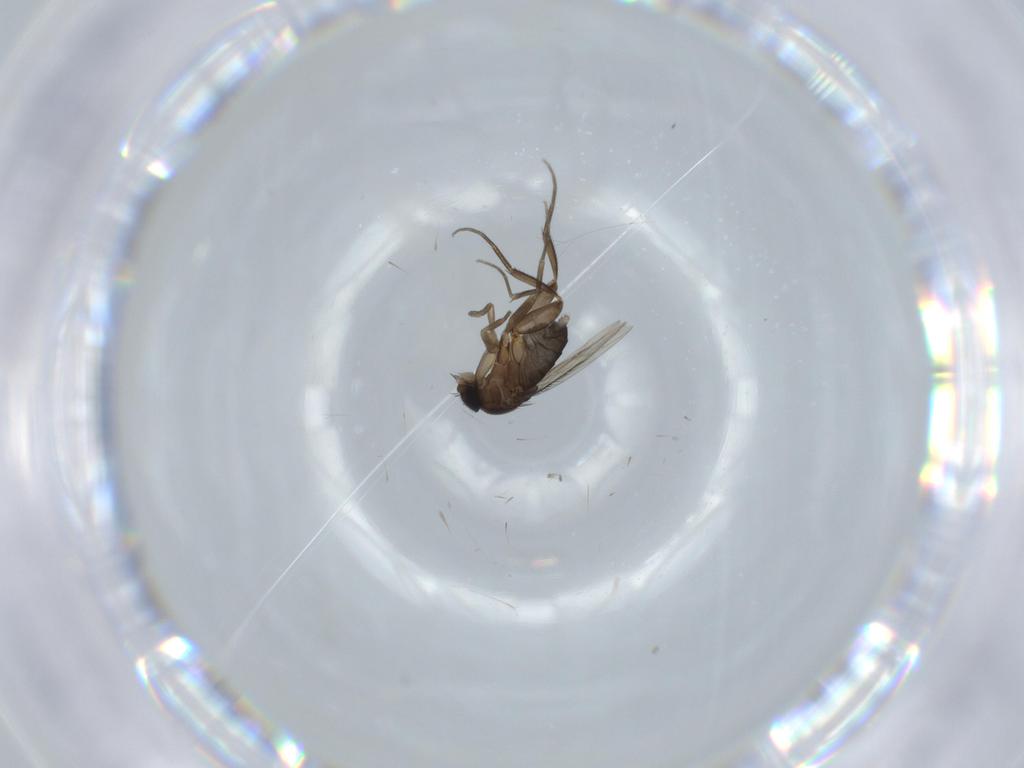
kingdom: Animalia
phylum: Arthropoda
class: Insecta
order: Diptera
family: Phoridae
